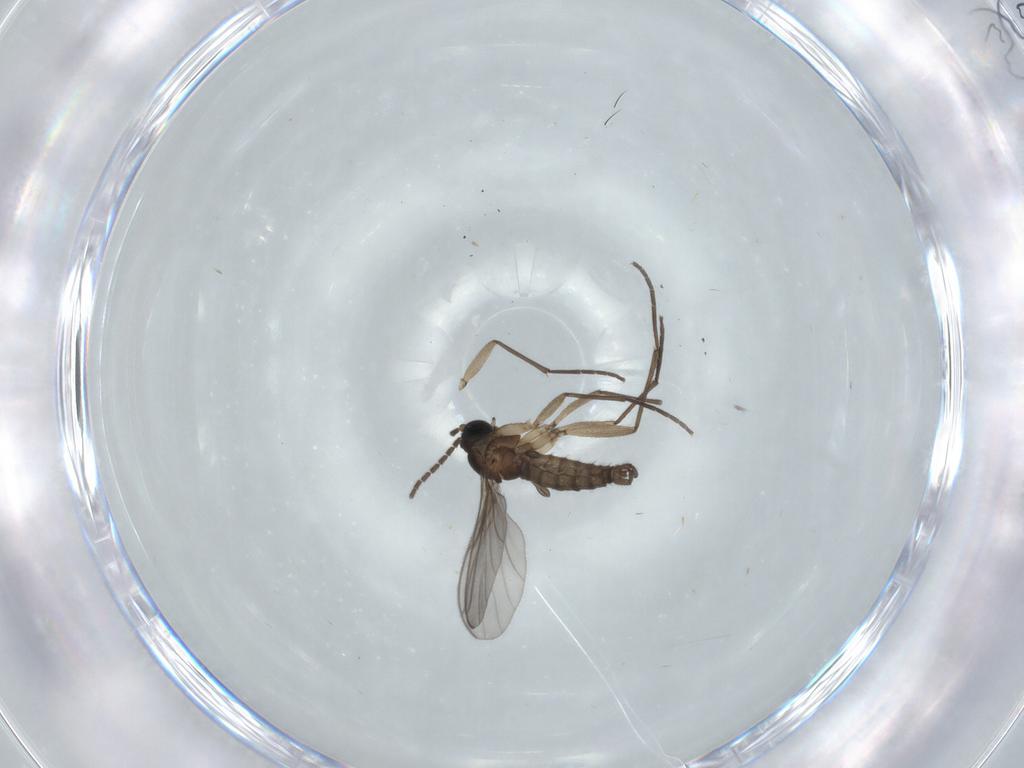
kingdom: Animalia
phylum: Arthropoda
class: Insecta
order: Diptera
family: Sciaridae
